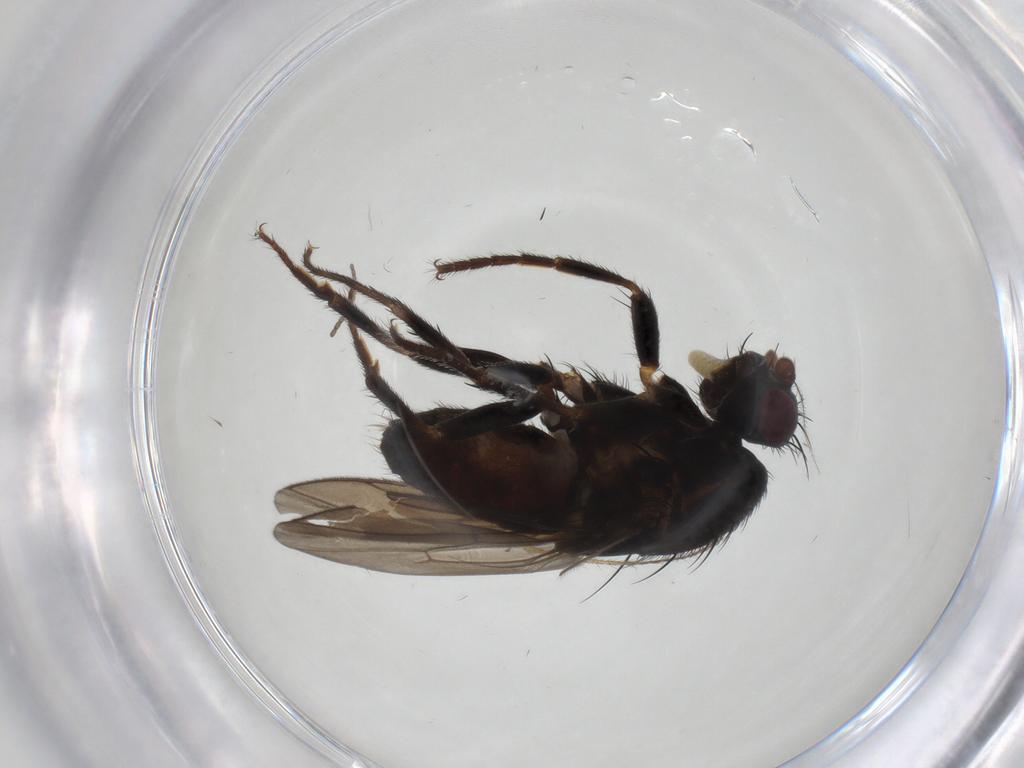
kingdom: Animalia
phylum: Arthropoda
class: Insecta
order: Diptera
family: Sphaeroceridae
